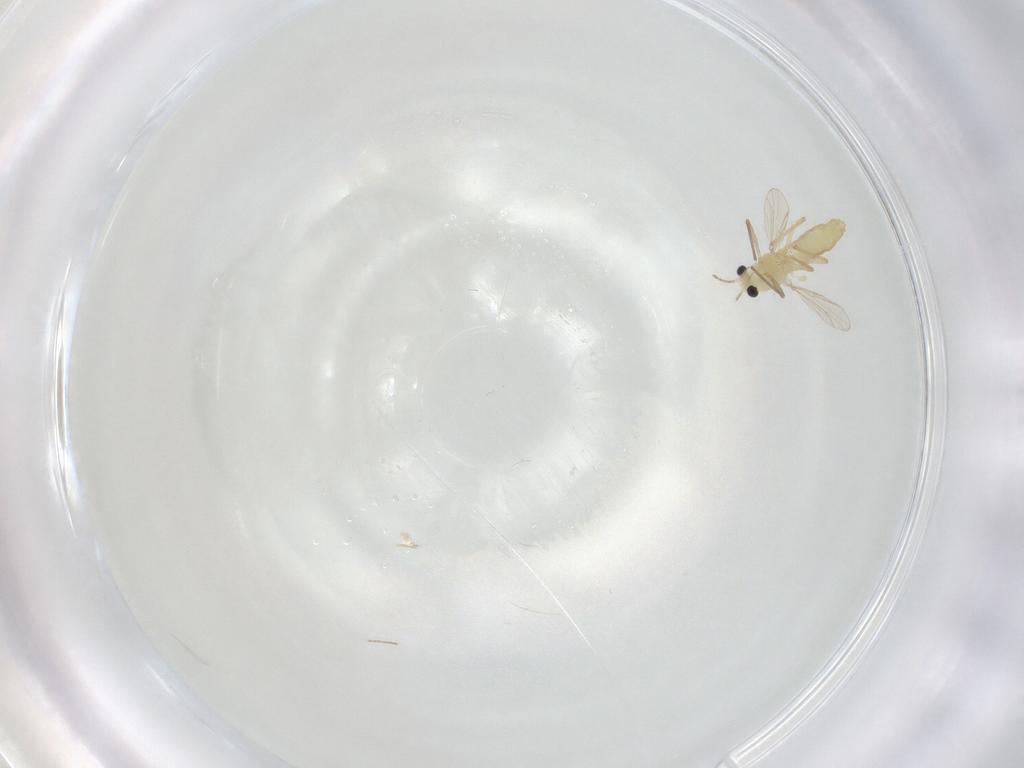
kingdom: Animalia
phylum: Arthropoda
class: Insecta
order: Diptera
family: Chironomidae
